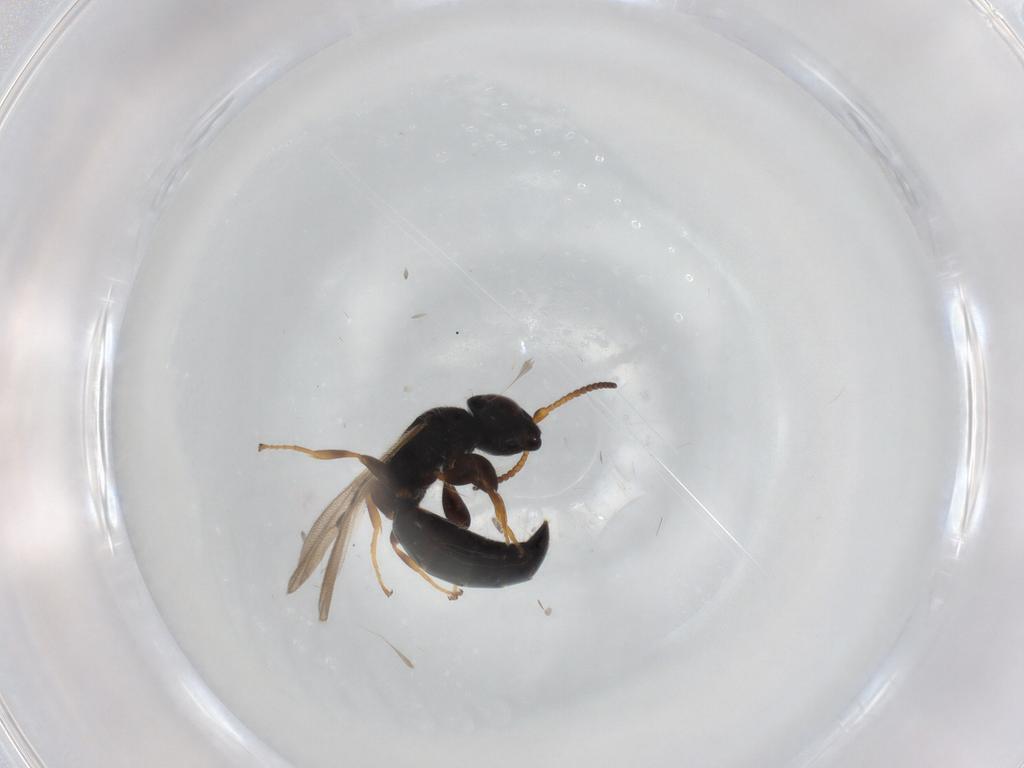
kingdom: Animalia
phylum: Arthropoda
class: Insecta
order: Hymenoptera
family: Bethylidae
